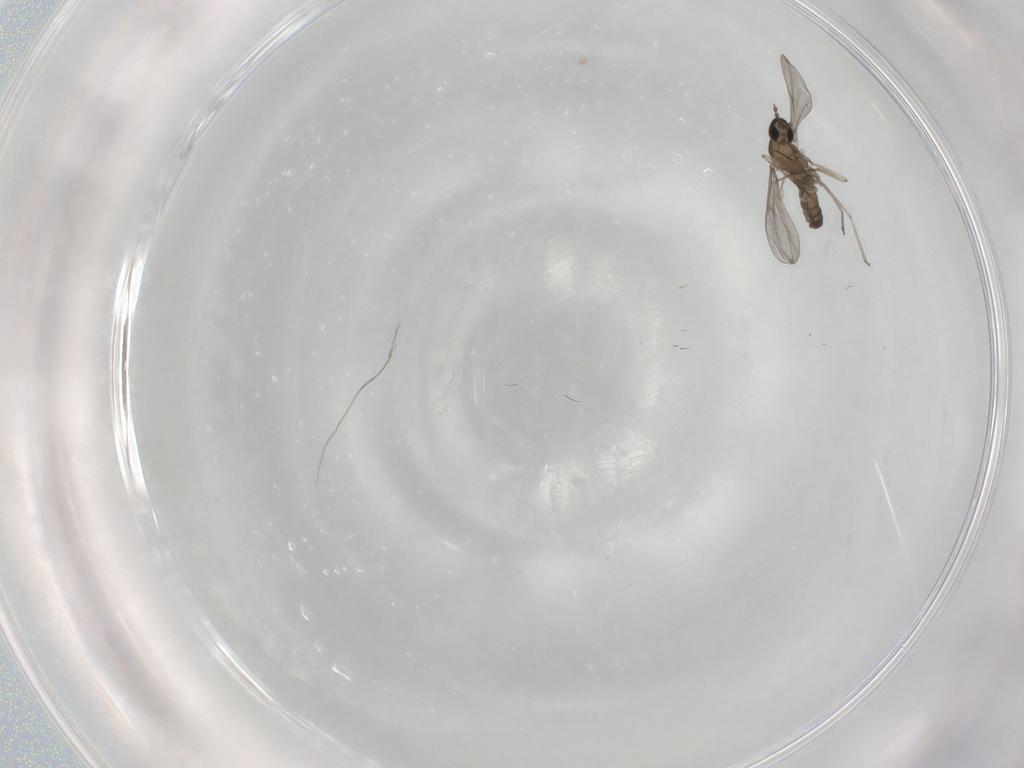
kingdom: Animalia
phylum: Arthropoda
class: Insecta
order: Diptera
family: Cecidomyiidae
